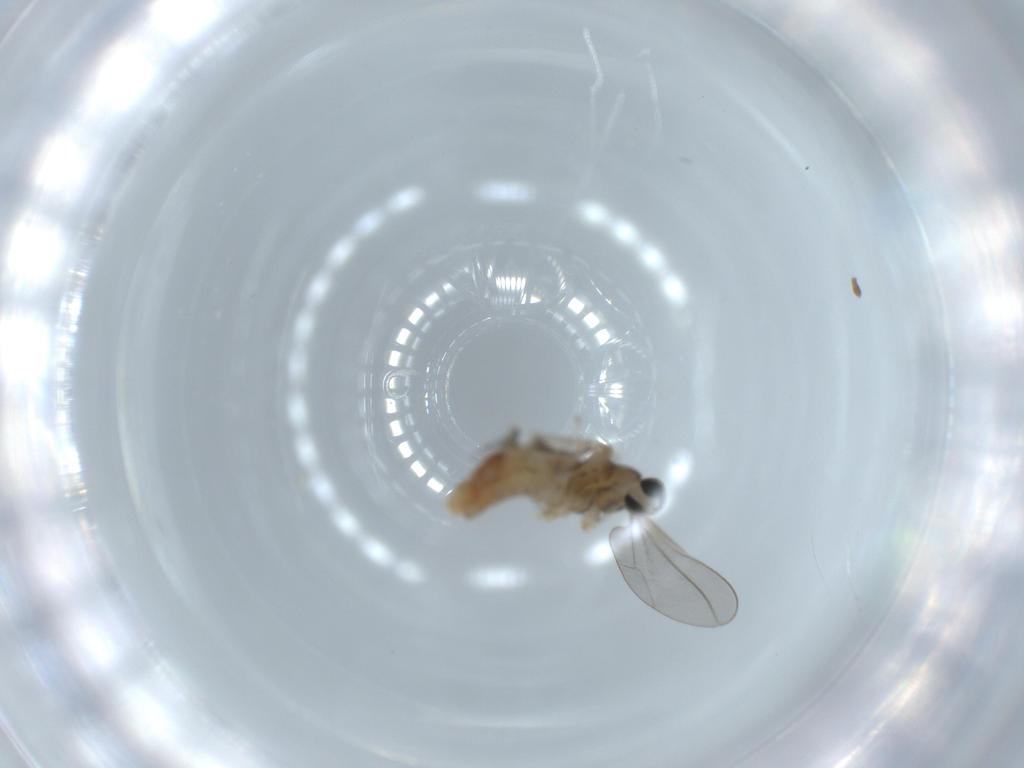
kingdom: Animalia
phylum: Arthropoda
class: Insecta
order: Diptera
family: Cecidomyiidae
